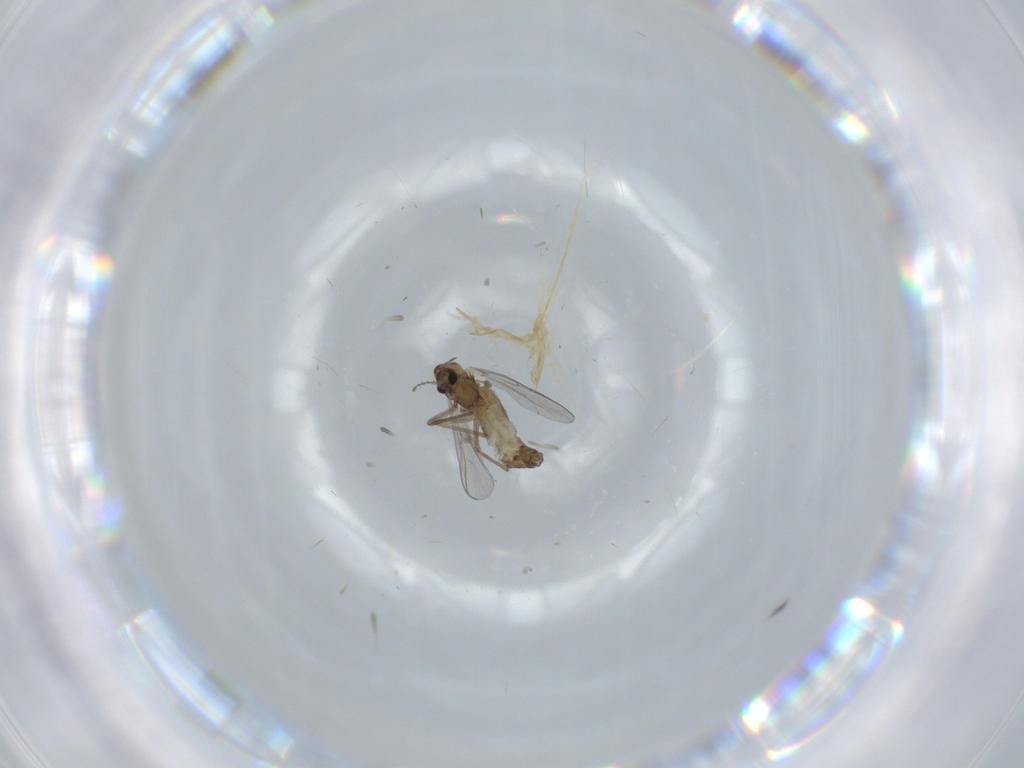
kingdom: Animalia
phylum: Arthropoda
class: Insecta
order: Diptera
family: Chironomidae
